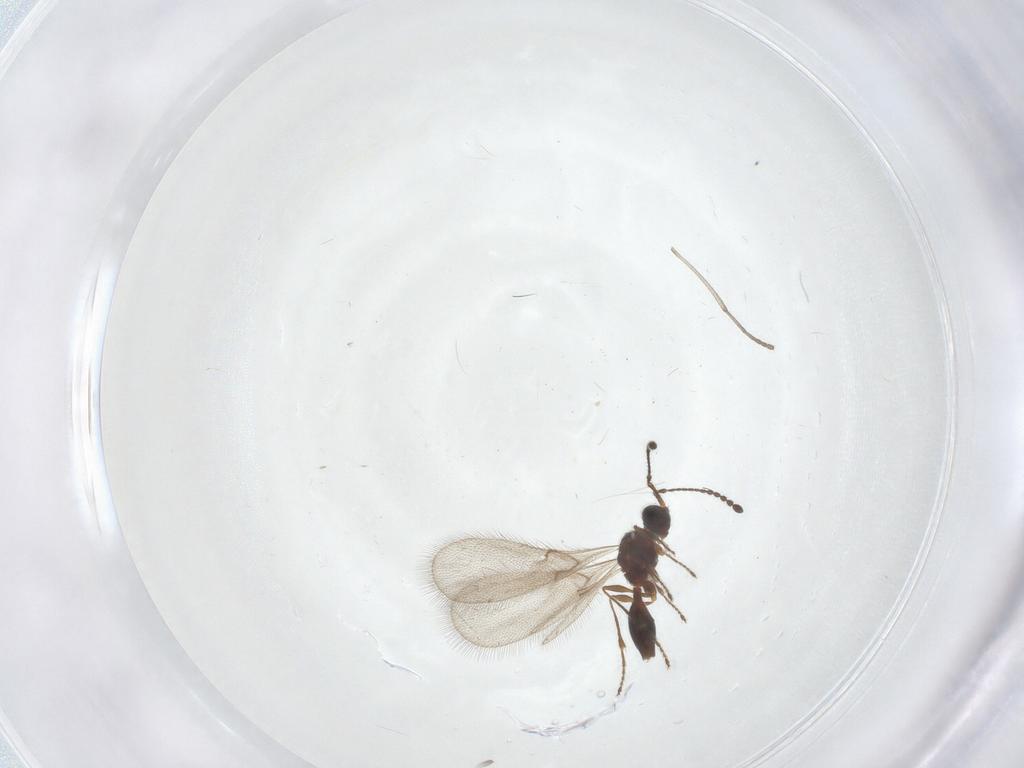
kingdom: Animalia
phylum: Arthropoda
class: Insecta
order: Hymenoptera
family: Diapriidae
